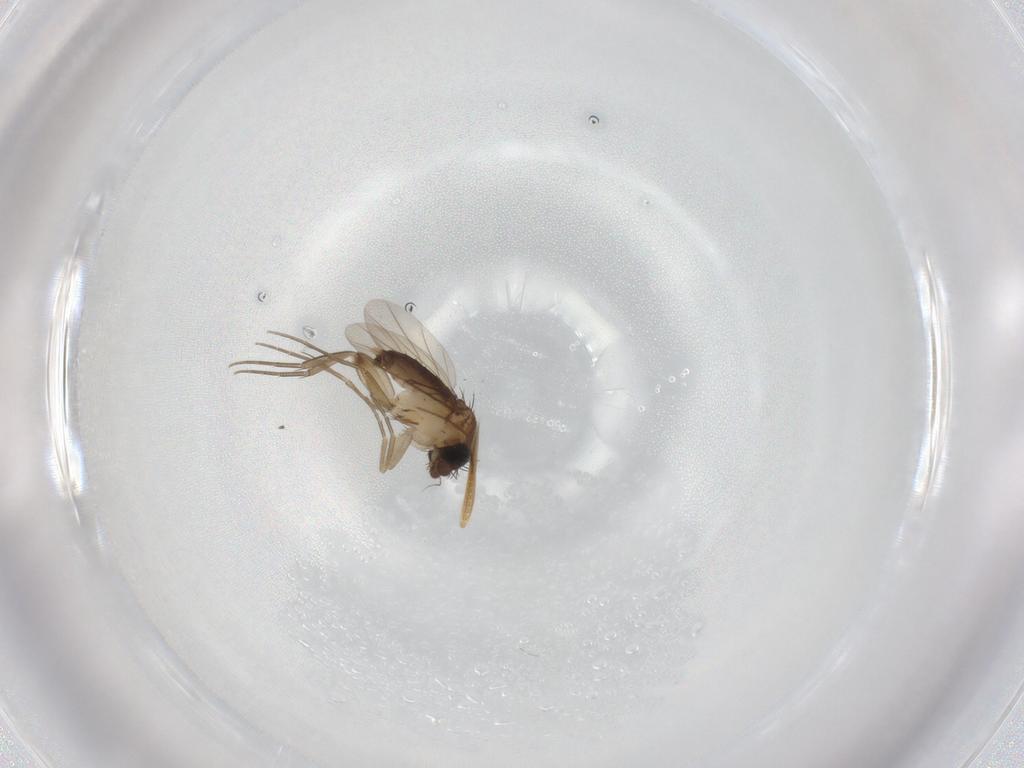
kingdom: Animalia
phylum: Arthropoda
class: Insecta
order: Diptera
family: Phoridae
